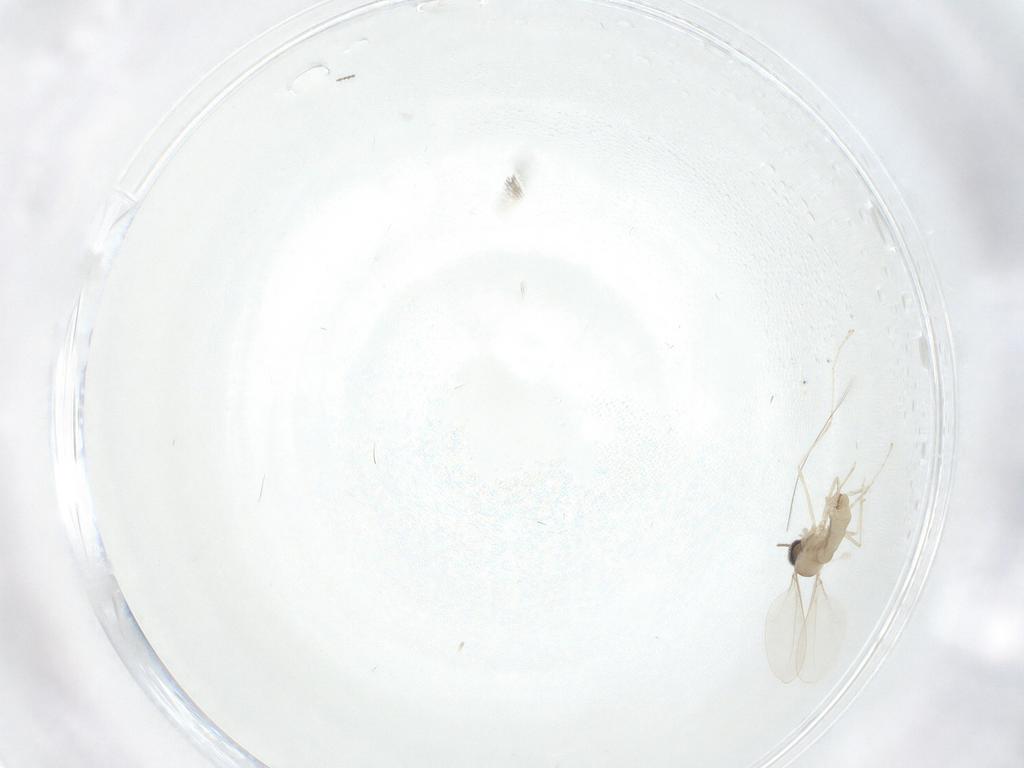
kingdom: Animalia
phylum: Arthropoda
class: Insecta
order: Diptera
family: Cecidomyiidae
